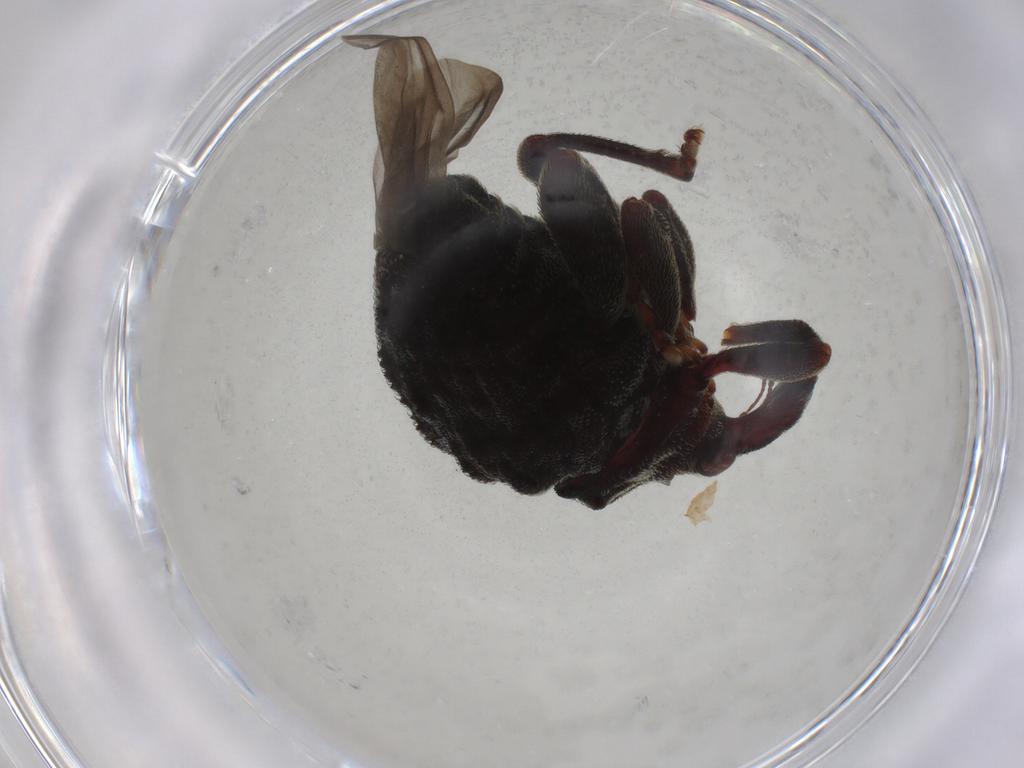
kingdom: Animalia
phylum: Arthropoda
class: Insecta
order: Coleoptera
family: Curculionidae
